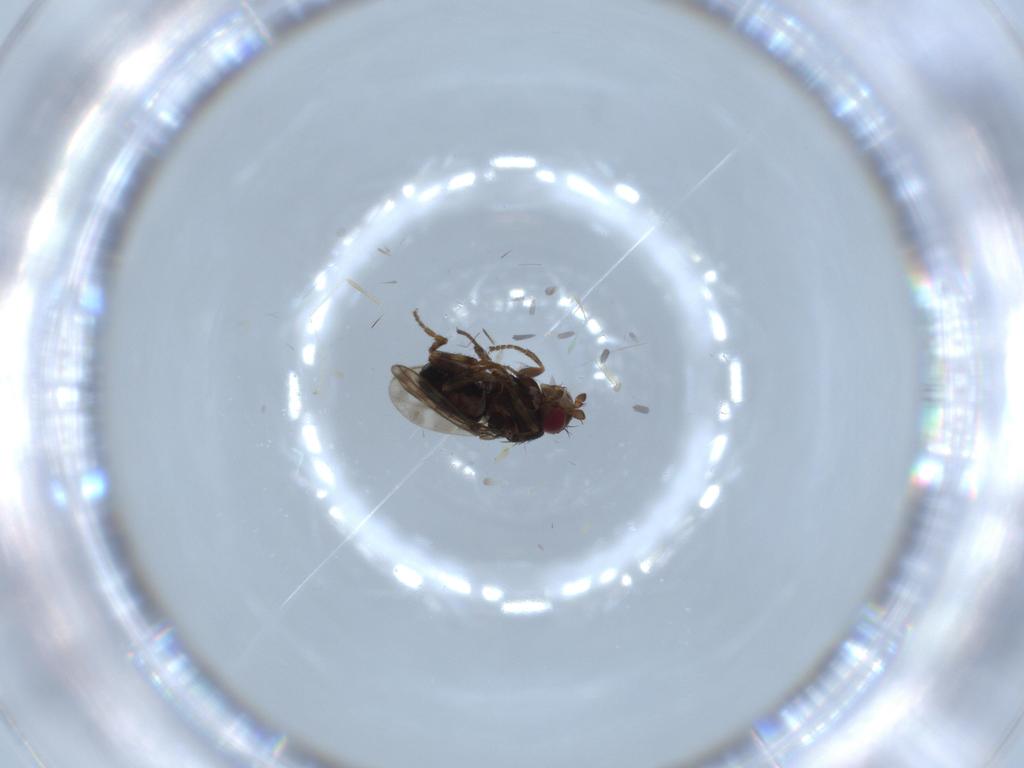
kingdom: Animalia
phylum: Arthropoda
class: Insecta
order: Diptera
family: Sphaeroceridae
